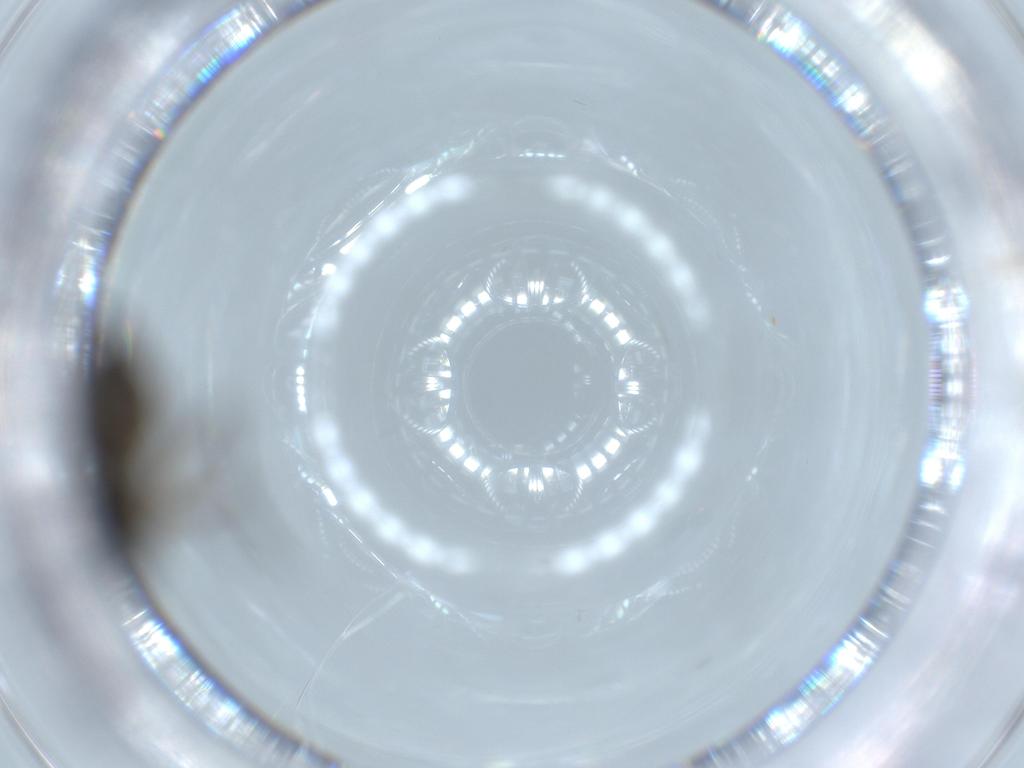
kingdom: Animalia
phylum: Arthropoda
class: Insecta
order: Diptera
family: Sciaridae
